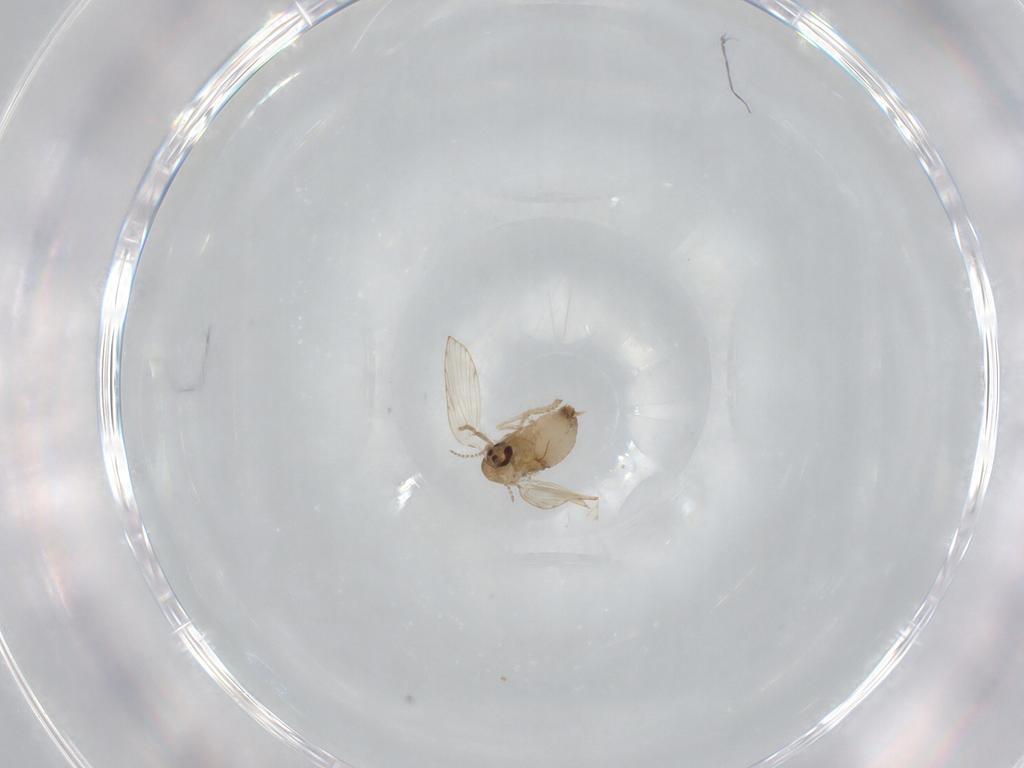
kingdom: Animalia
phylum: Arthropoda
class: Insecta
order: Diptera
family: Psychodidae
